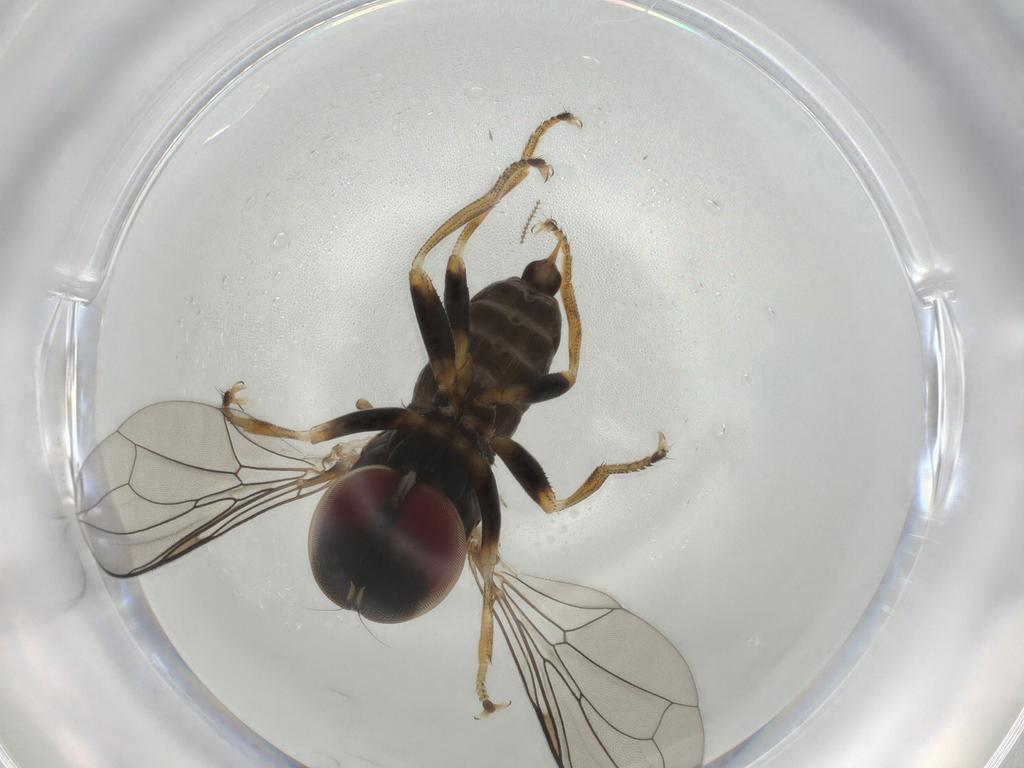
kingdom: Animalia
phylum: Arthropoda
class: Insecta
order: Diptera
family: Pipunculidae
